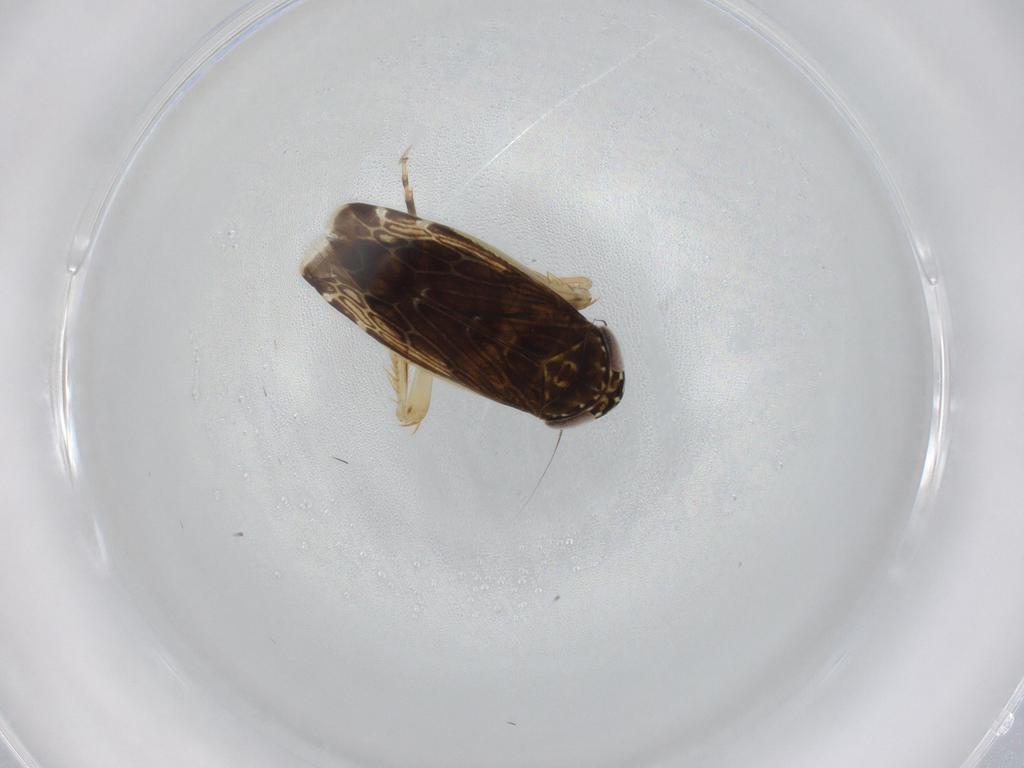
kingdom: Animalia
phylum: Arthropoda
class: Insecta
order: Hemiptera
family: Cicadellidae
